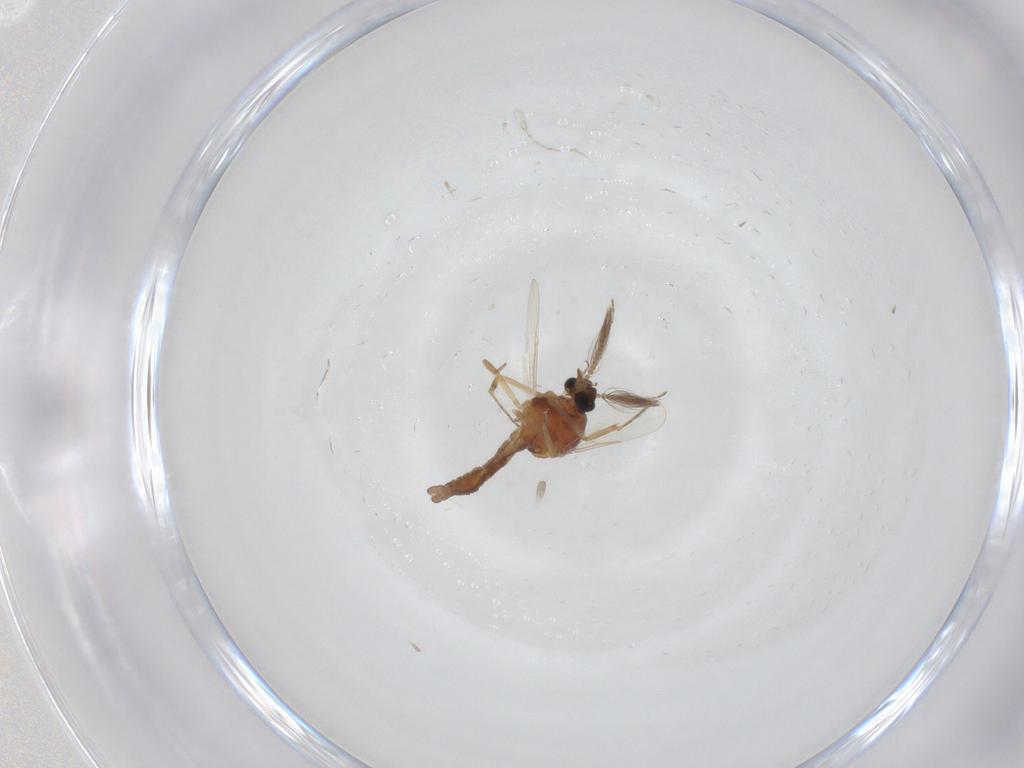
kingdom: Animalia
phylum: Arthropoda
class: Insecta
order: Diptera
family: Ceratopogonidae
